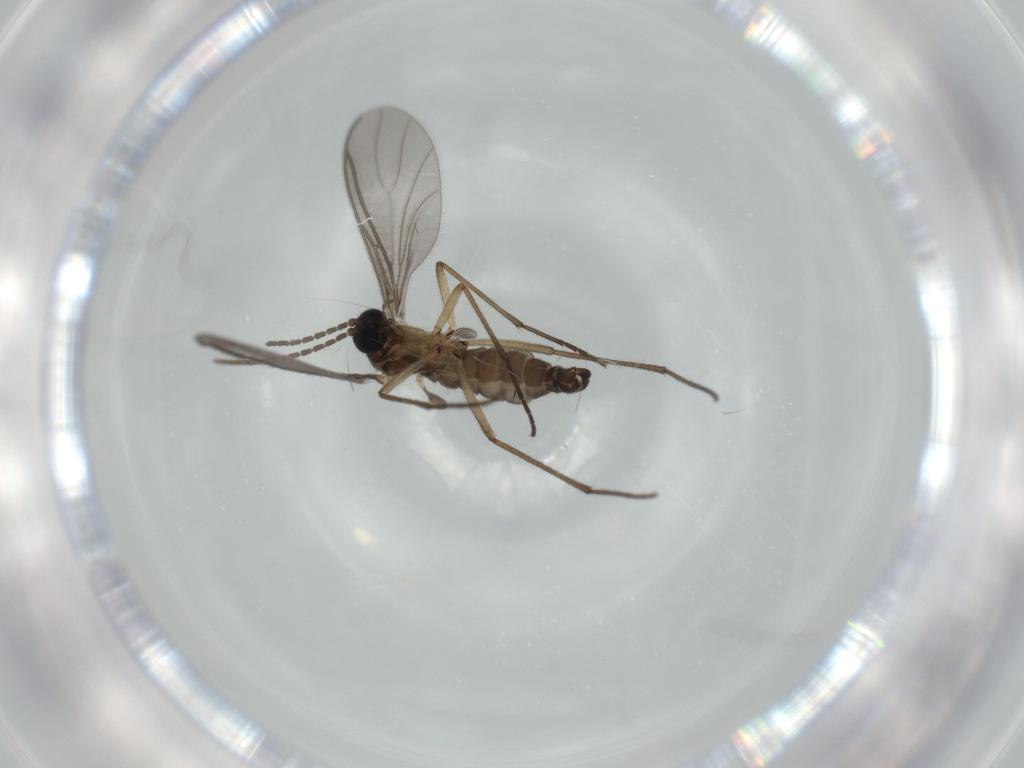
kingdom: Animalia
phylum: Arthropoda
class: Insecta
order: Diptera
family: Sciaridae
